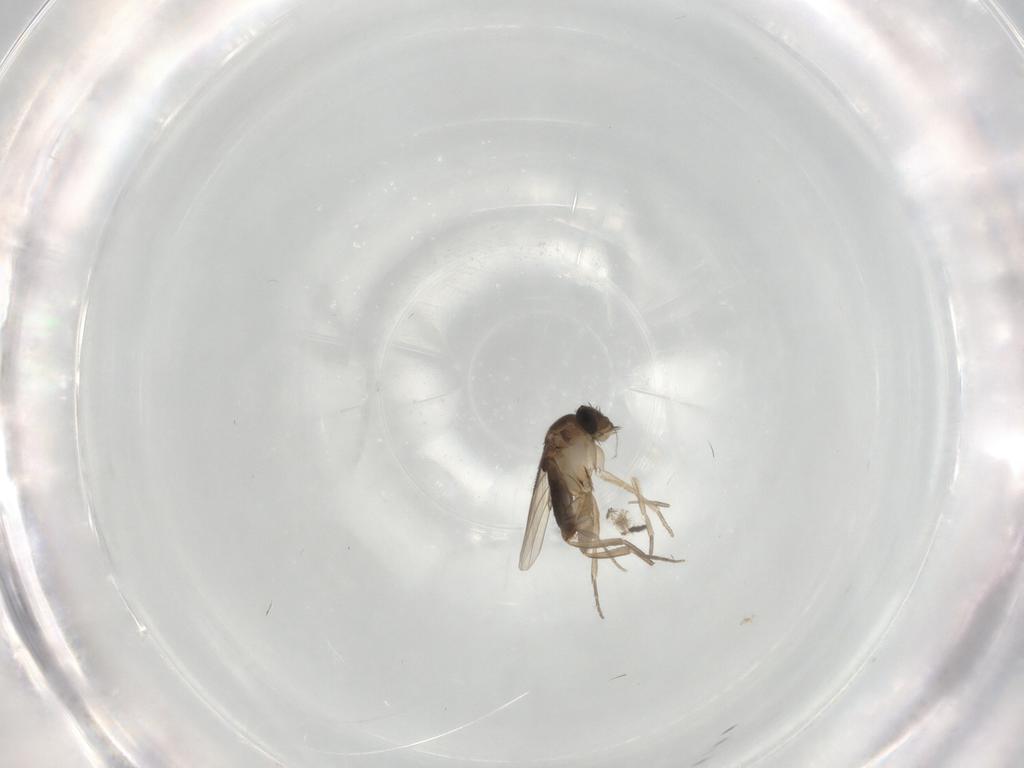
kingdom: Animalia
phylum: Arthropoda
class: Insecta
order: Diptera
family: Phoridae
